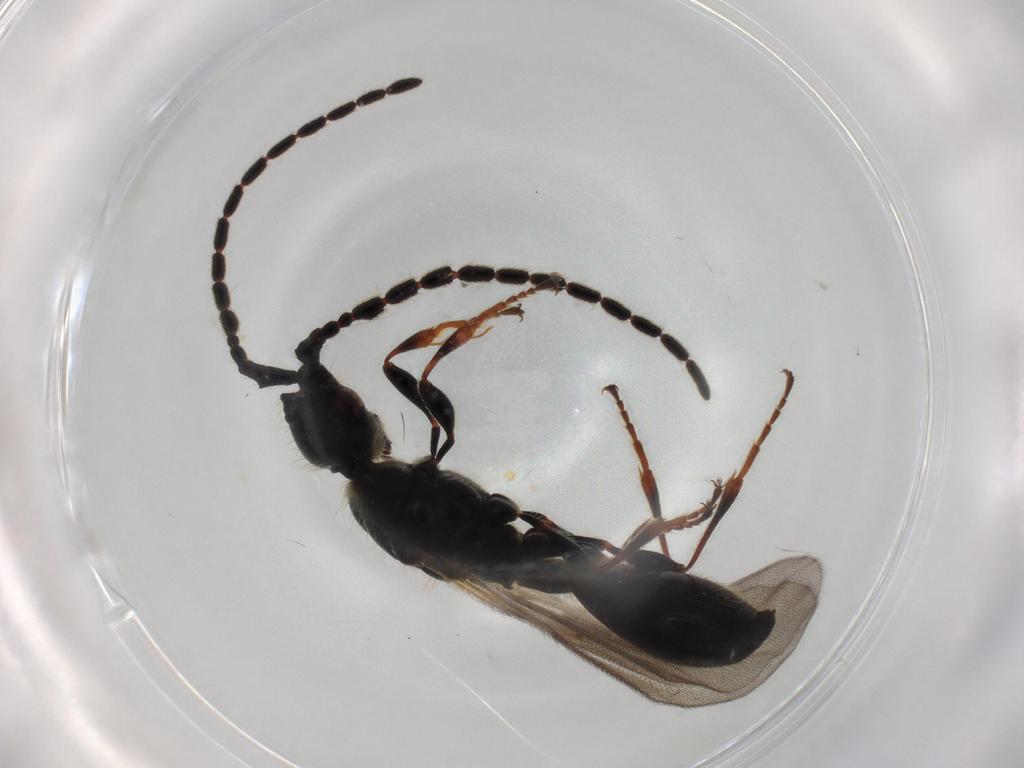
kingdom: Animalia
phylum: Arthropoda
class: Insecta
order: Hymenoptera
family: Diapriidae
